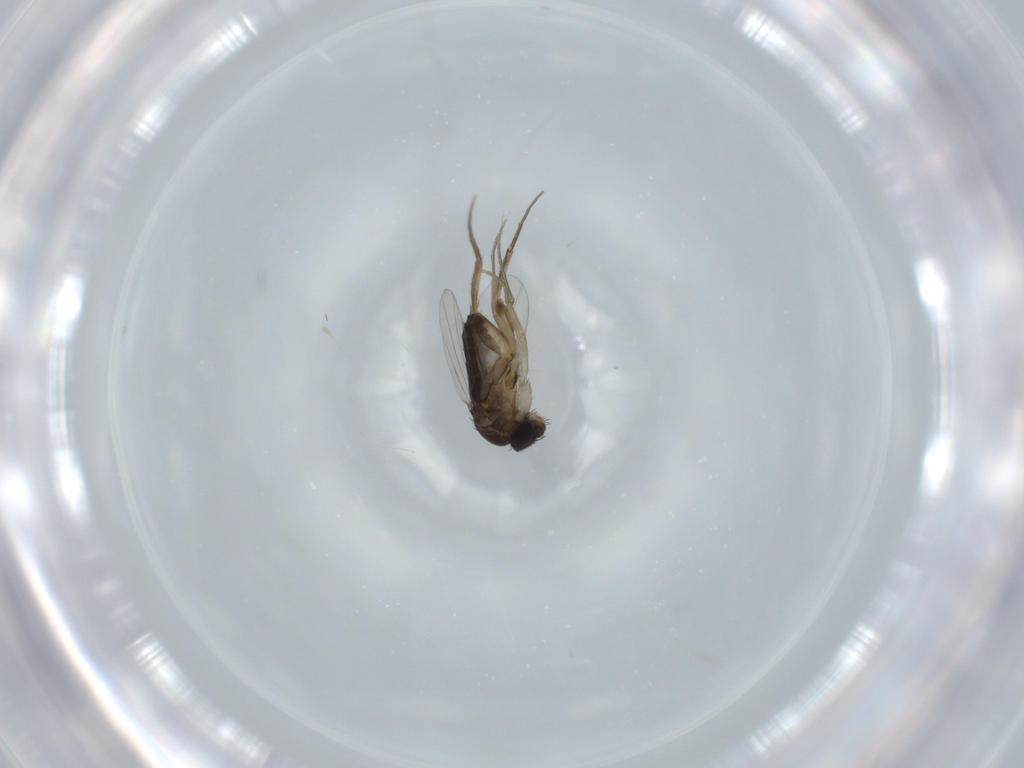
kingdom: Animalia
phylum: Arthropoda
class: Insecta
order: Diptera
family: Phoridae
